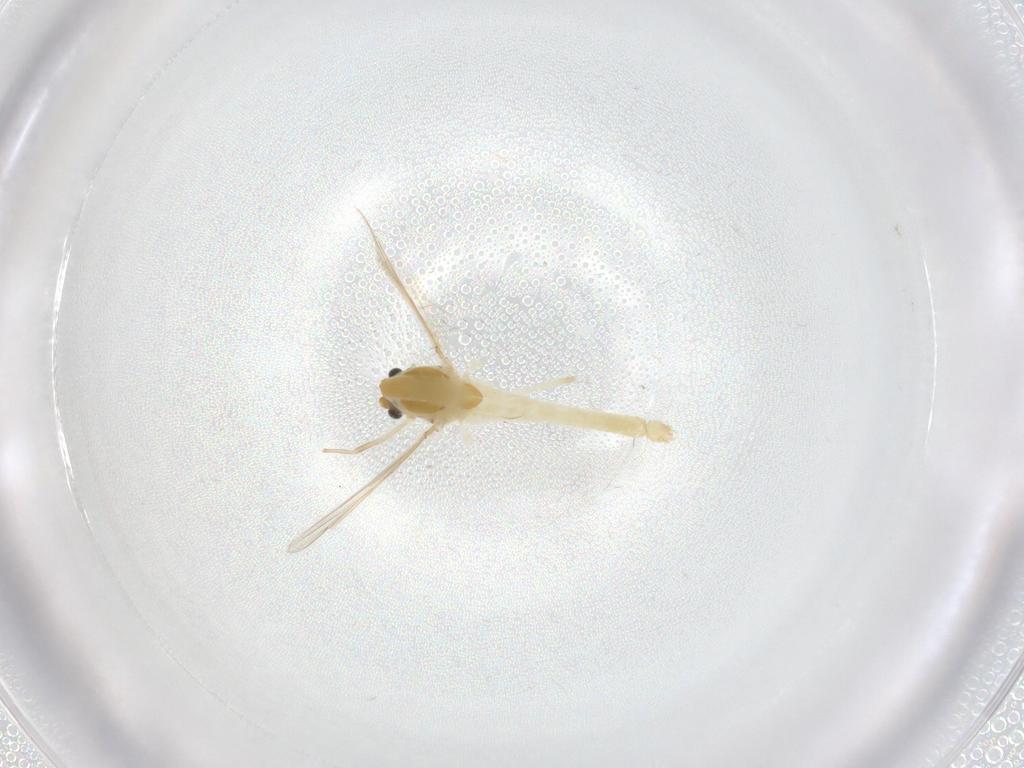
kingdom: Animalia
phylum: Arthropoda
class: Insecta
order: Diptera
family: Chironomidae
